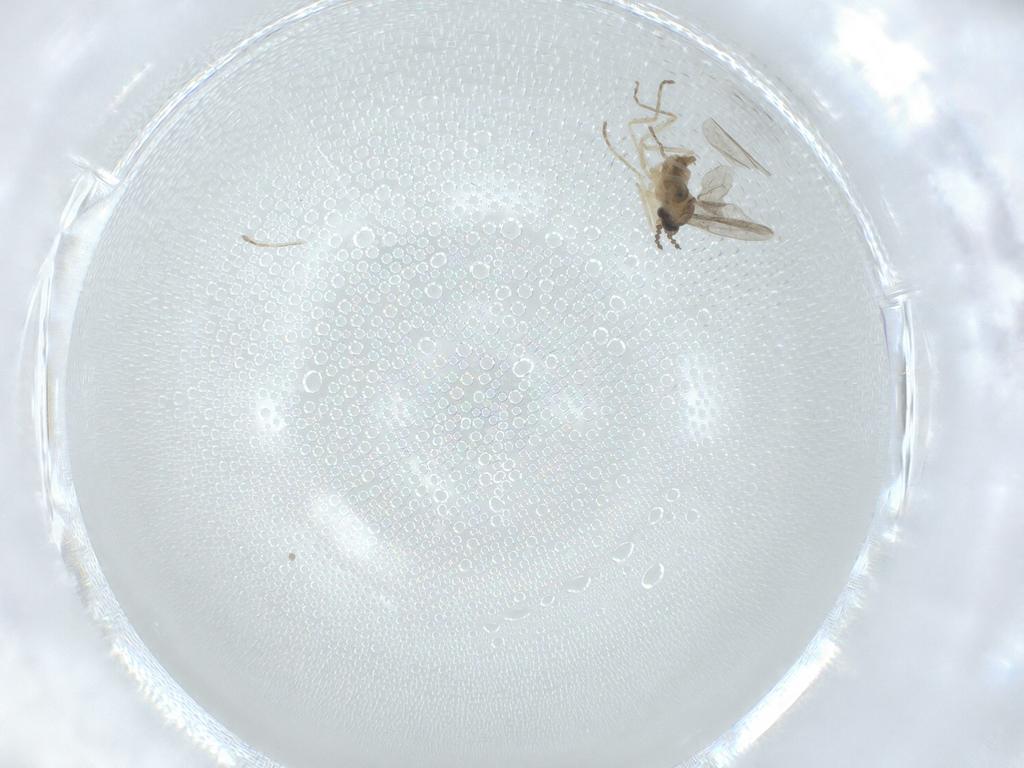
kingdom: Animalia
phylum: Arthropoda
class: Insecta
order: Diptera
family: Cecidomyiidae
